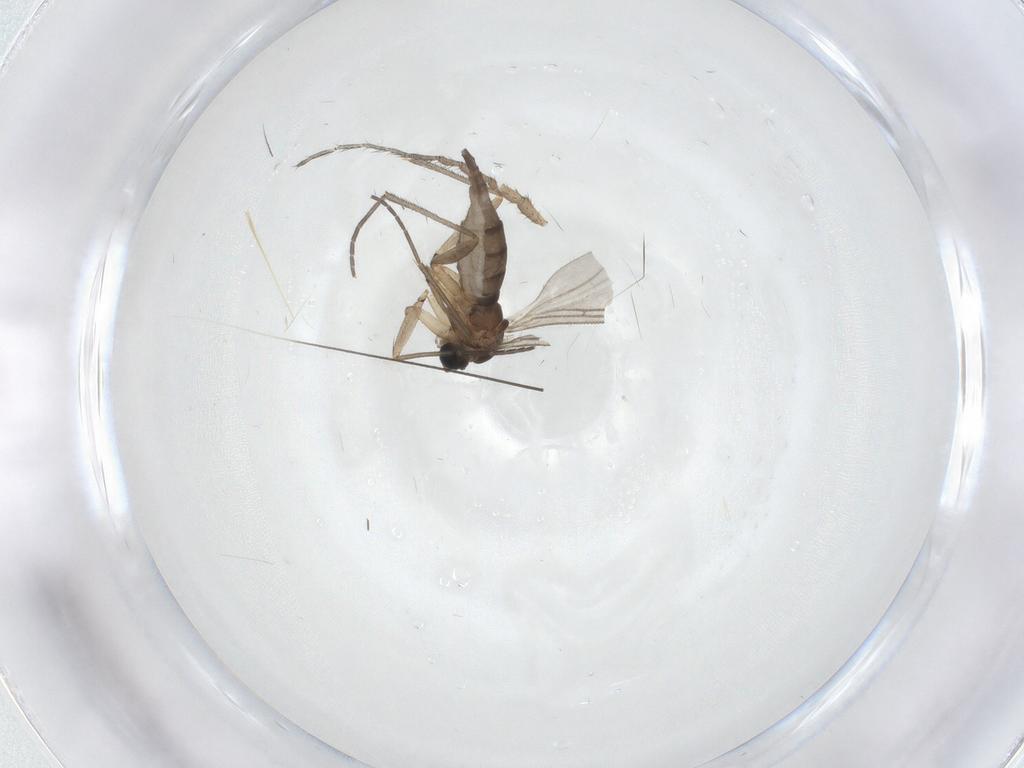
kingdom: Animalia
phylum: Arthropoda
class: Insecta
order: Diptera
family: Sciaridae
